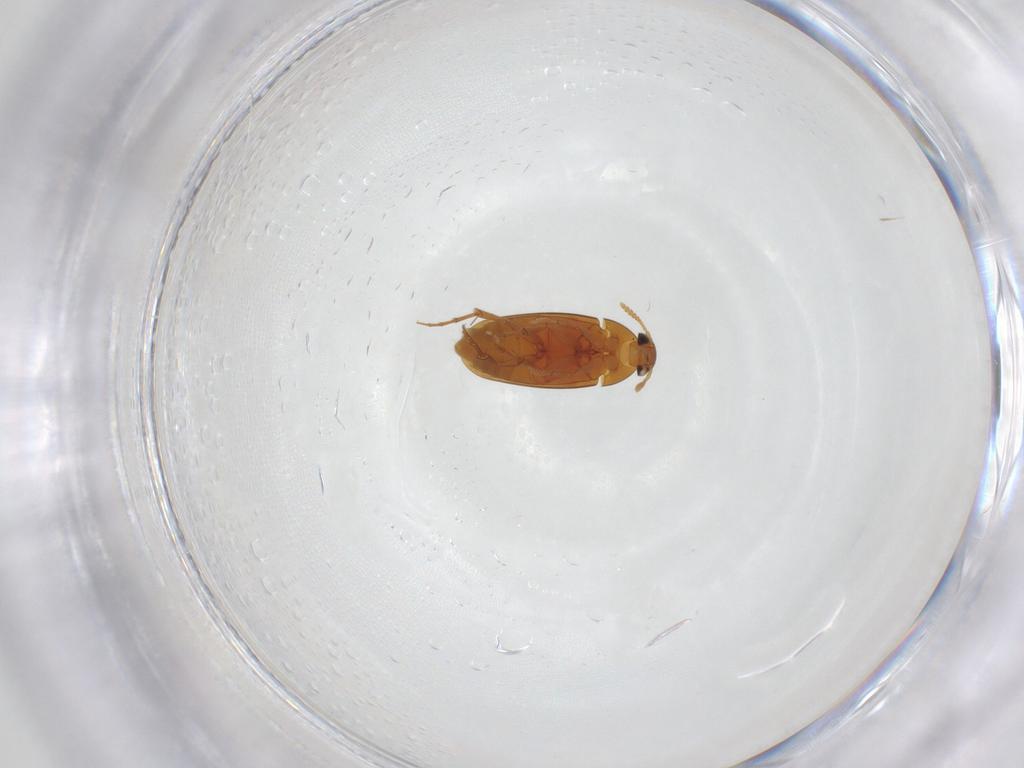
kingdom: Animalia
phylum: Arthropoda
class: Insecta
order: Coleoptera
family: Scraptiidae
